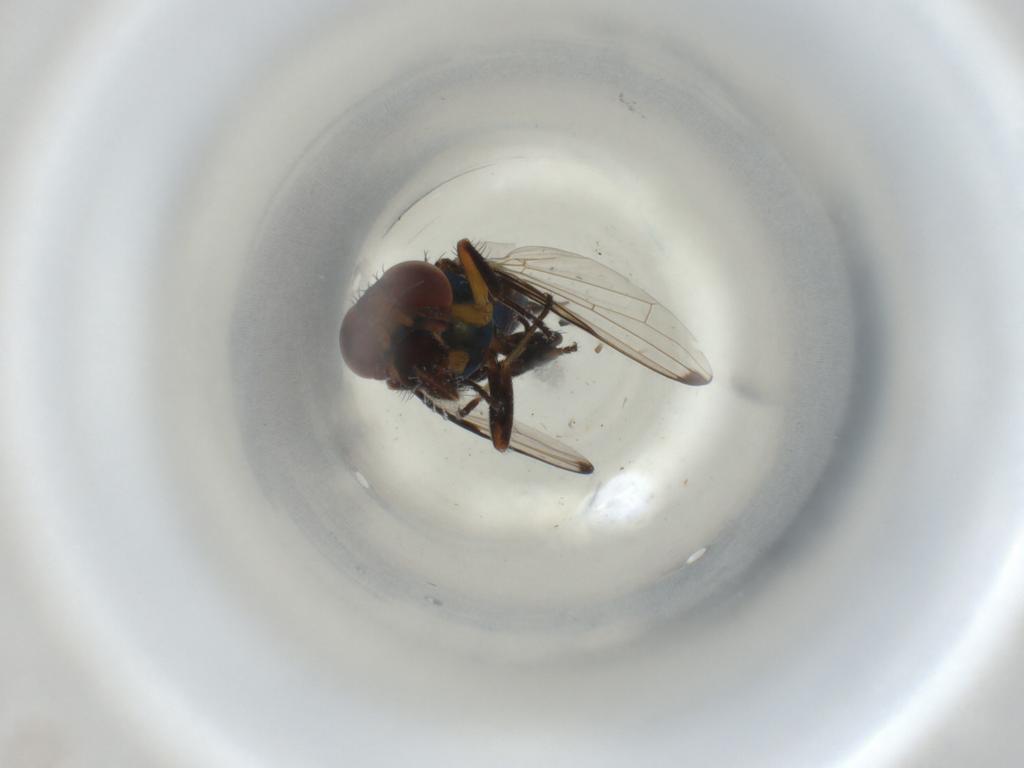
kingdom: Animalia
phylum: Arthropoda
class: Insecta
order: Diptera
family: Ulidiidae
